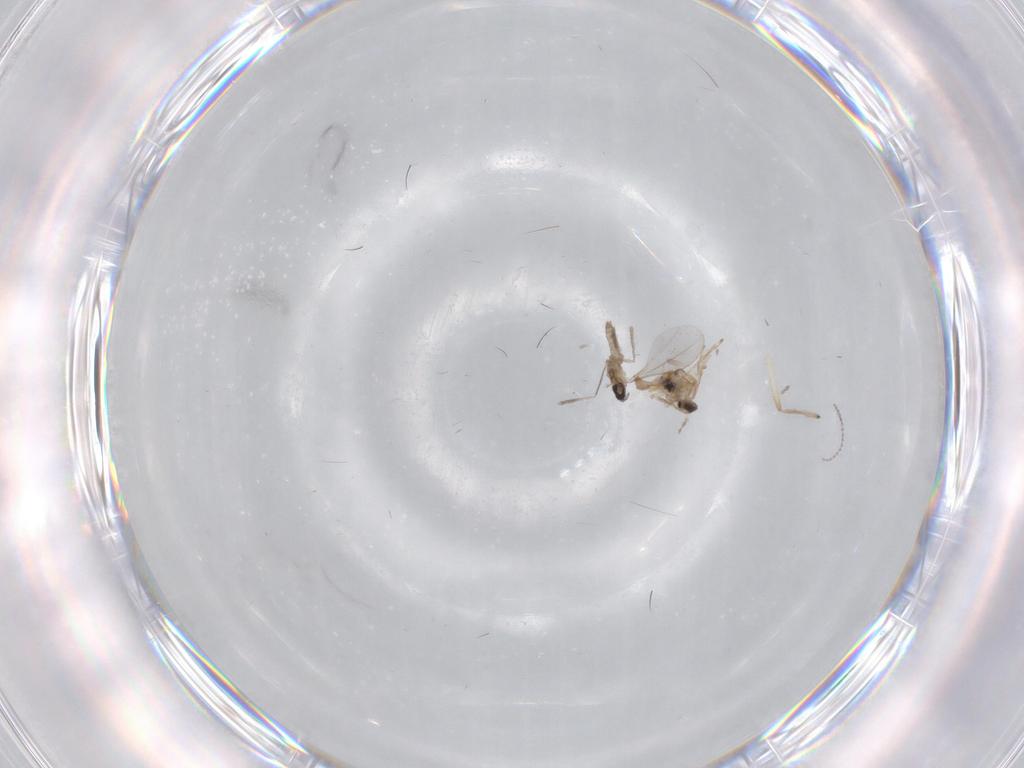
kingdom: Animalia
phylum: Arthropoda
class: Insecta
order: Diptera
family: Cecidomyiidae
